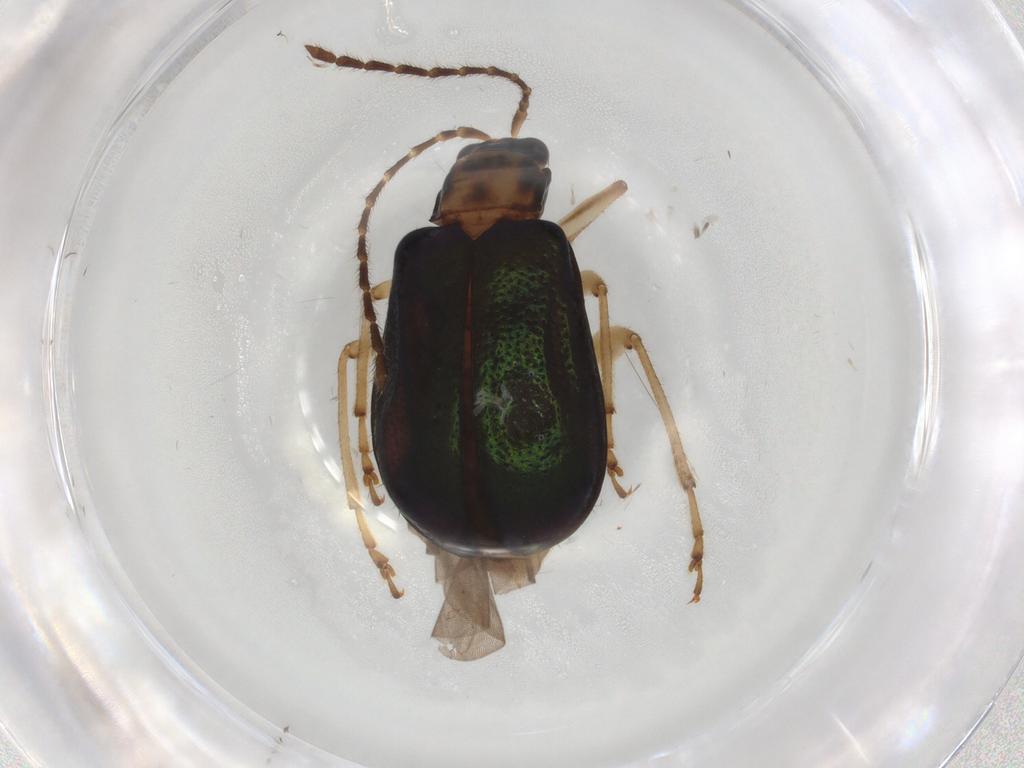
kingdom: Animalia
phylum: Arthropoda
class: Insecta
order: Coleoptera
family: Chrysomelidae
